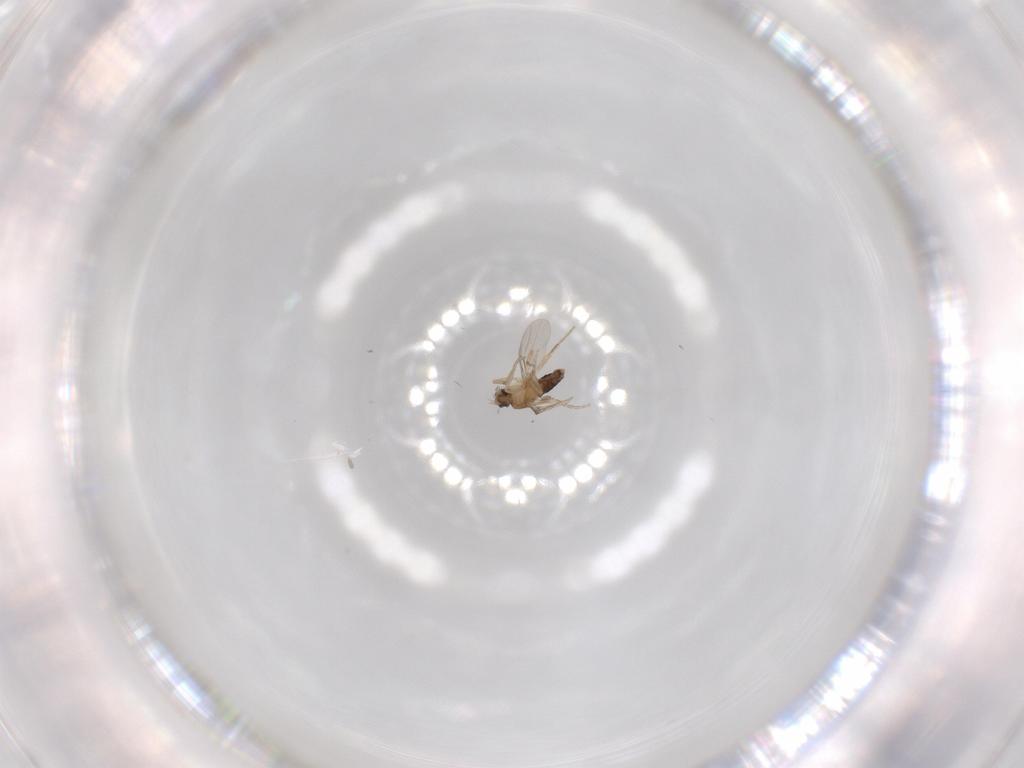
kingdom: Animalia
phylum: Arthropoda
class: Insecta
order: Diptera
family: Phoridae
